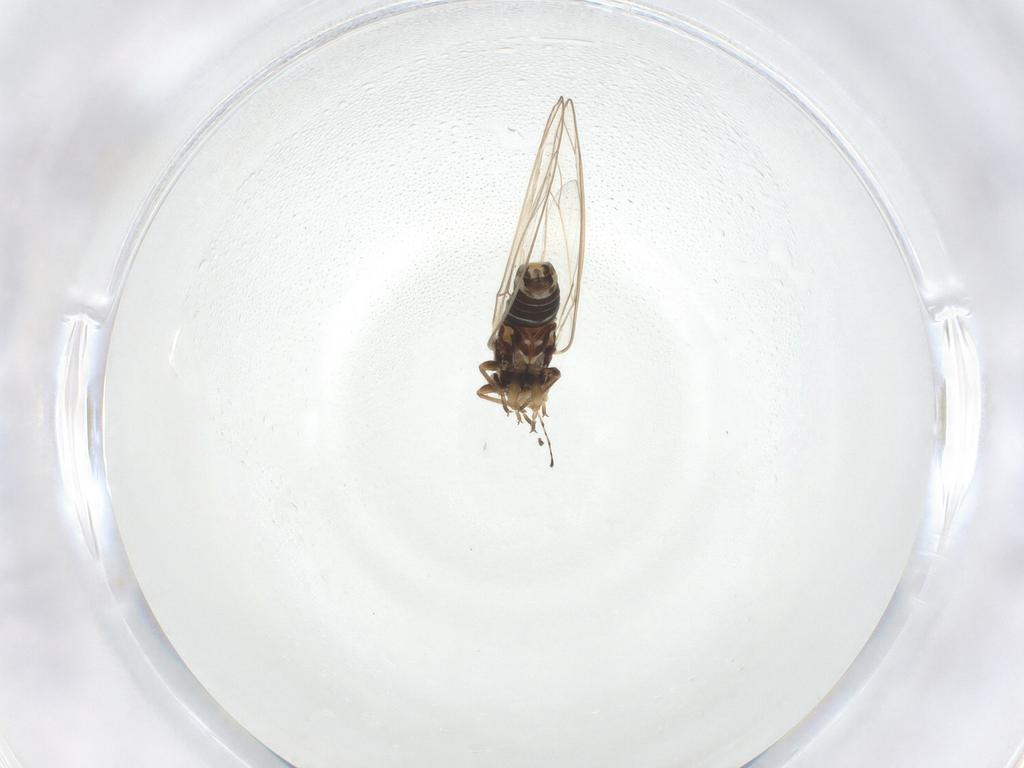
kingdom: Animalia
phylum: Arthropoda
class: Insecta
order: Hemiptera
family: Triozidae
